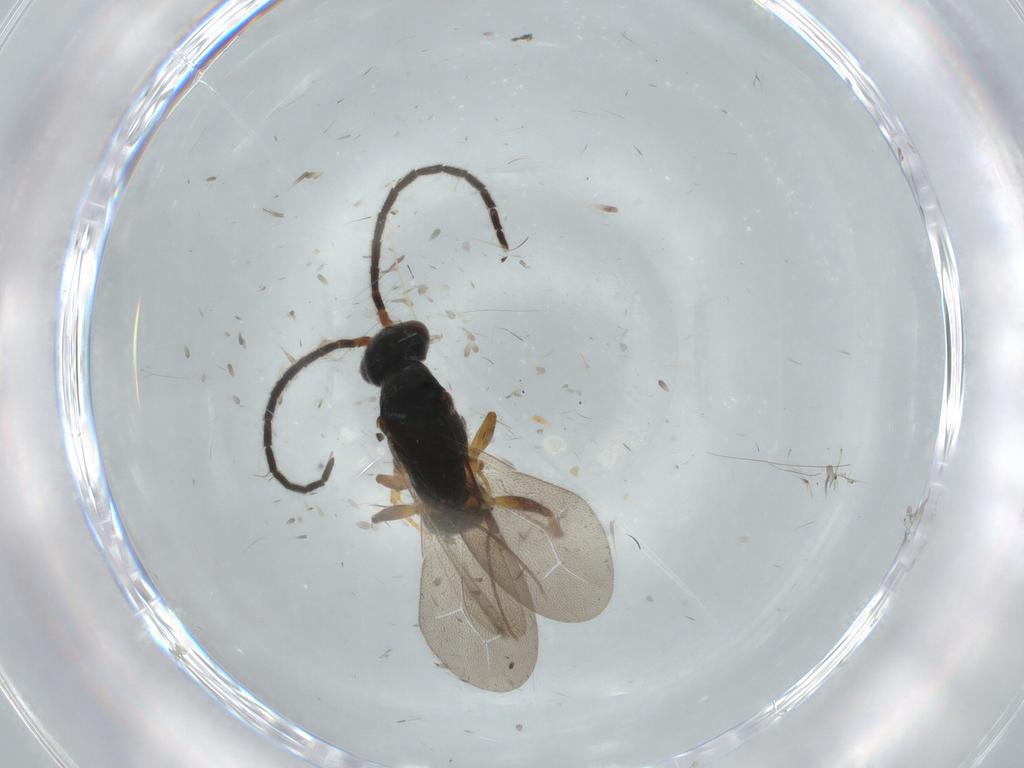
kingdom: Animalia
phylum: Arthropoda
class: Insecta
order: Hymenoptera
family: Bethylidae
